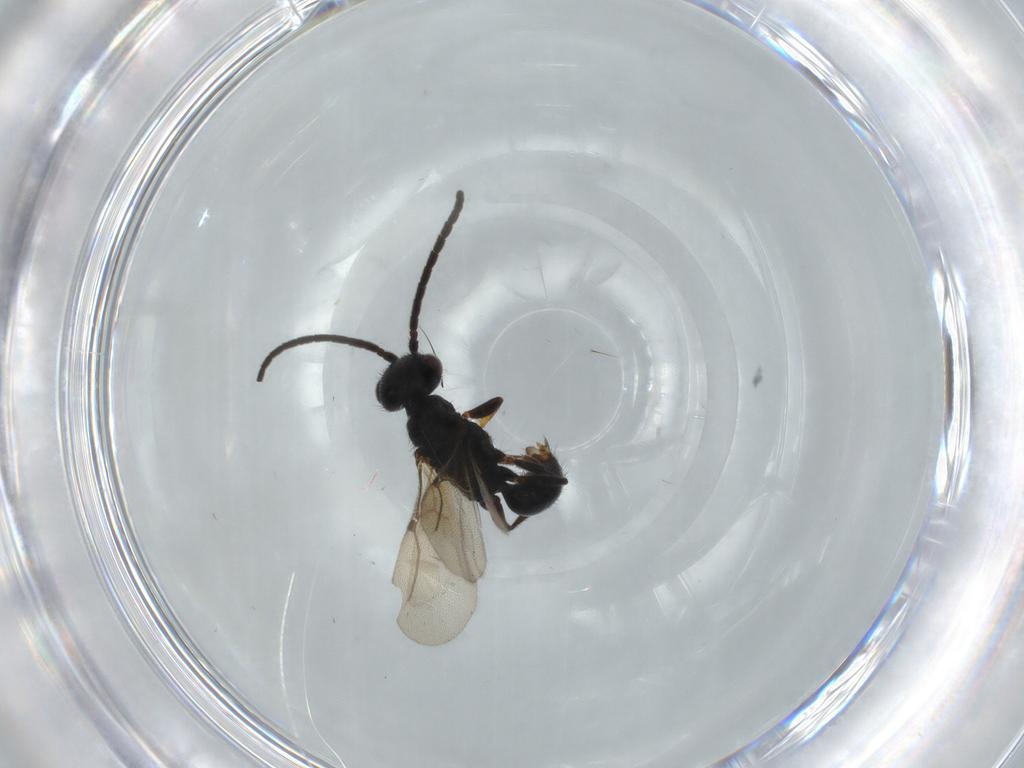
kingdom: Animalia
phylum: Arthropoda
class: Insecta
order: Hymenoptera
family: Bethylidae
